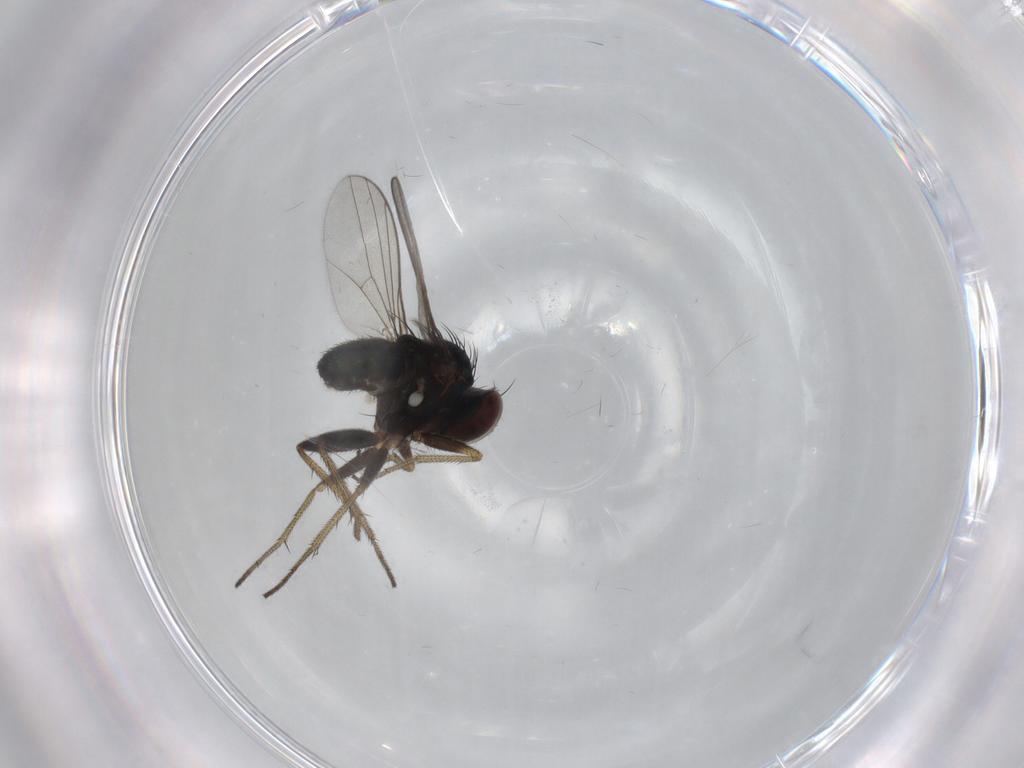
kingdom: Animalia
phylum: Arthropoda
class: Insecta
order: Diptera
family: Dolichopodidae
